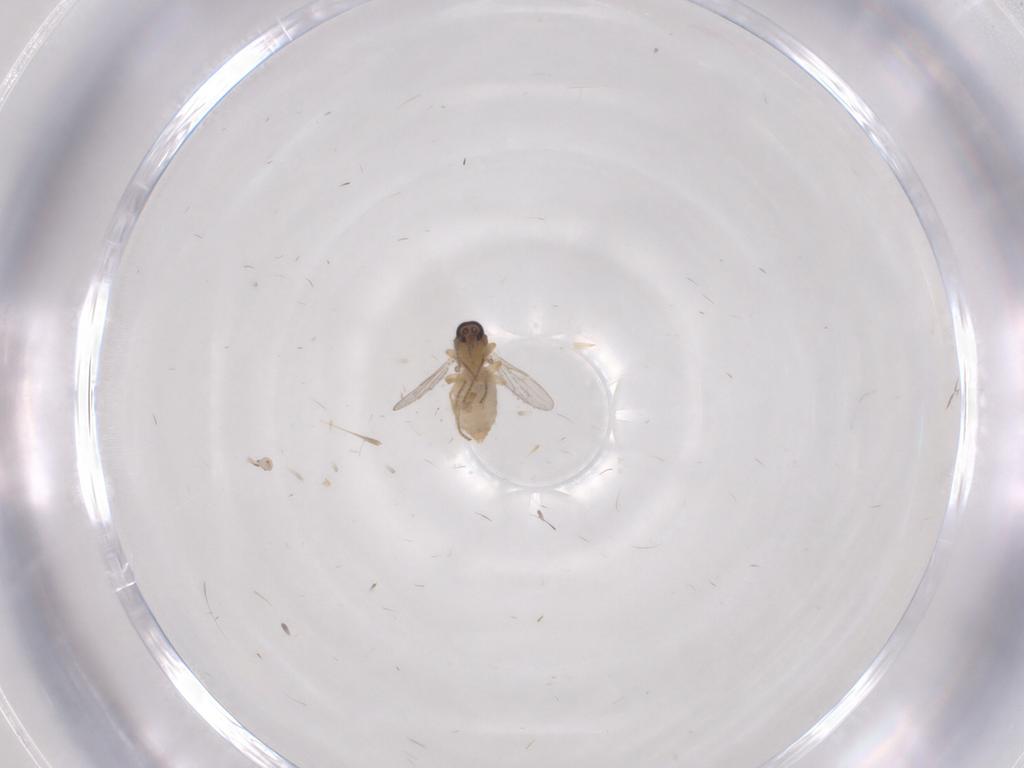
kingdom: Animalia
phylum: Arthropoda
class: Insecta
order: Diptera
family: Ceratopogonidae
